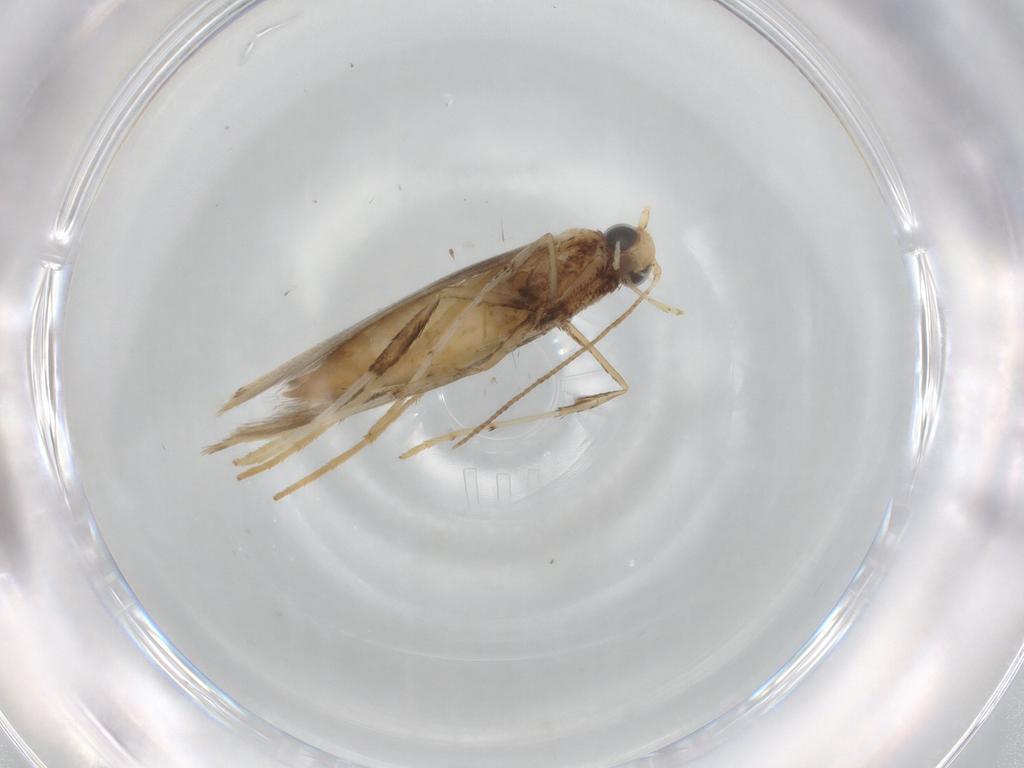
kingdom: Animalia
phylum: Arthropoda
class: Insecta
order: Lepidoptera
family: Gracillariidae
